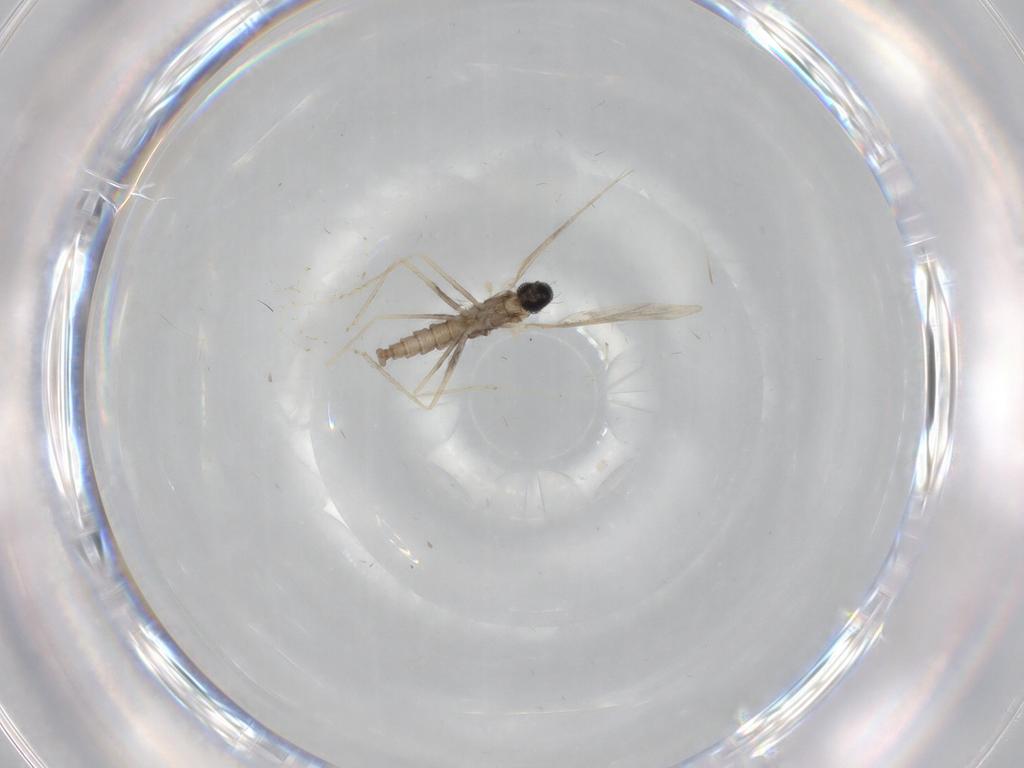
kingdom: Animalia
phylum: Arthropoda
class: Insecta
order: Diptera
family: Cecidomyiidae
